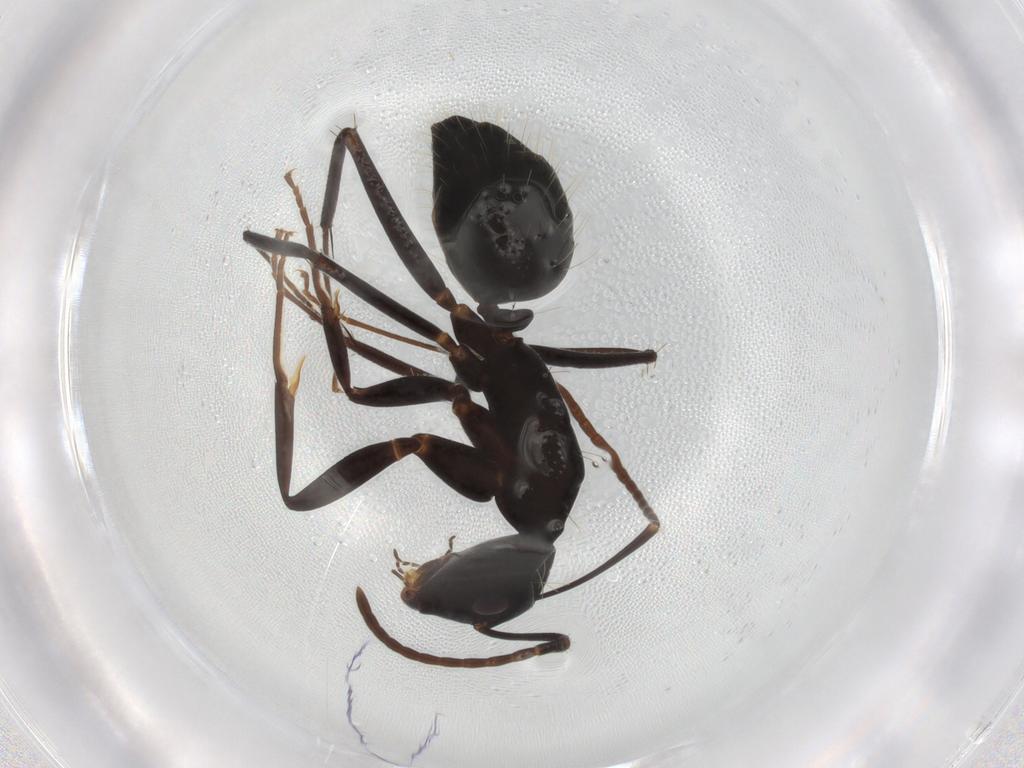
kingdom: Animalia
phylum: Arthropoda
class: Insecta
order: Hymenoptera
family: Formicidae
